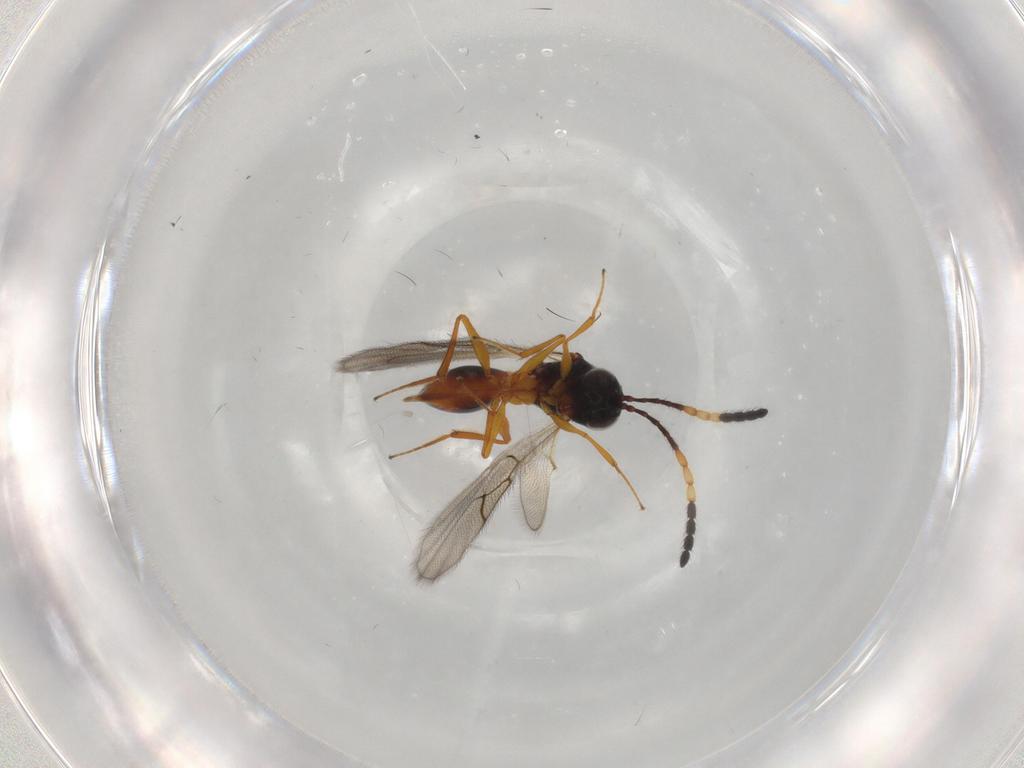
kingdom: Animalia
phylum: Arthropoda
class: Insecta
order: Hymenoptera
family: Figitidae
